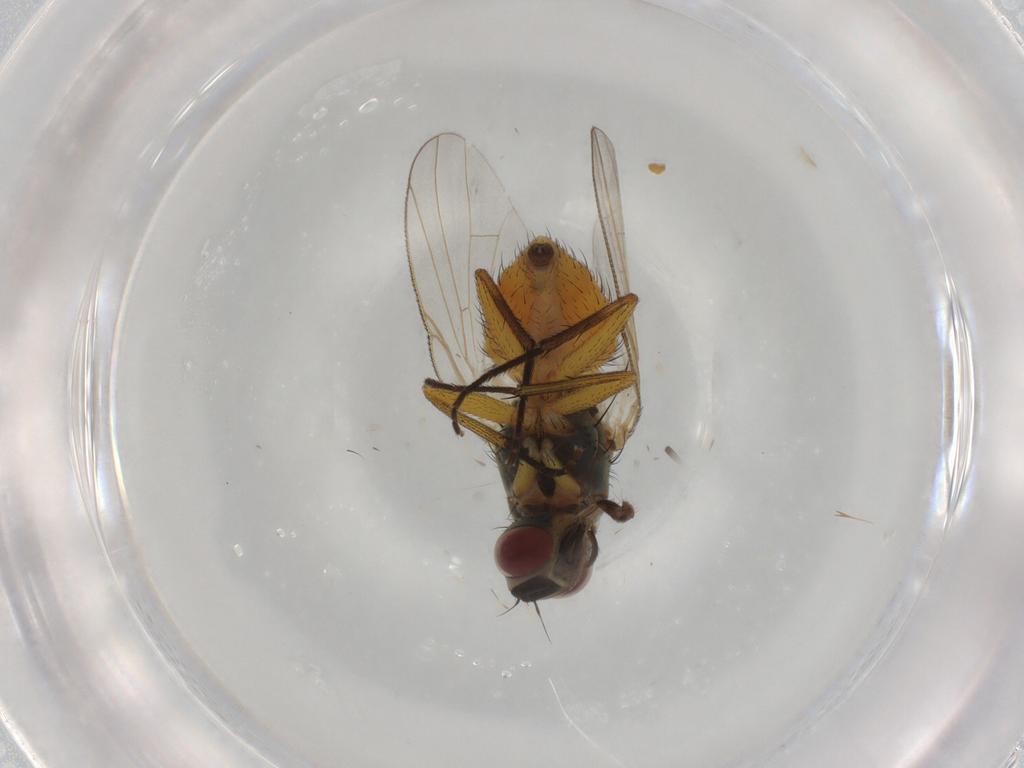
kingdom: Animalia
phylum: Arthropoda
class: Insecta
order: Diptera
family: Muscidae
